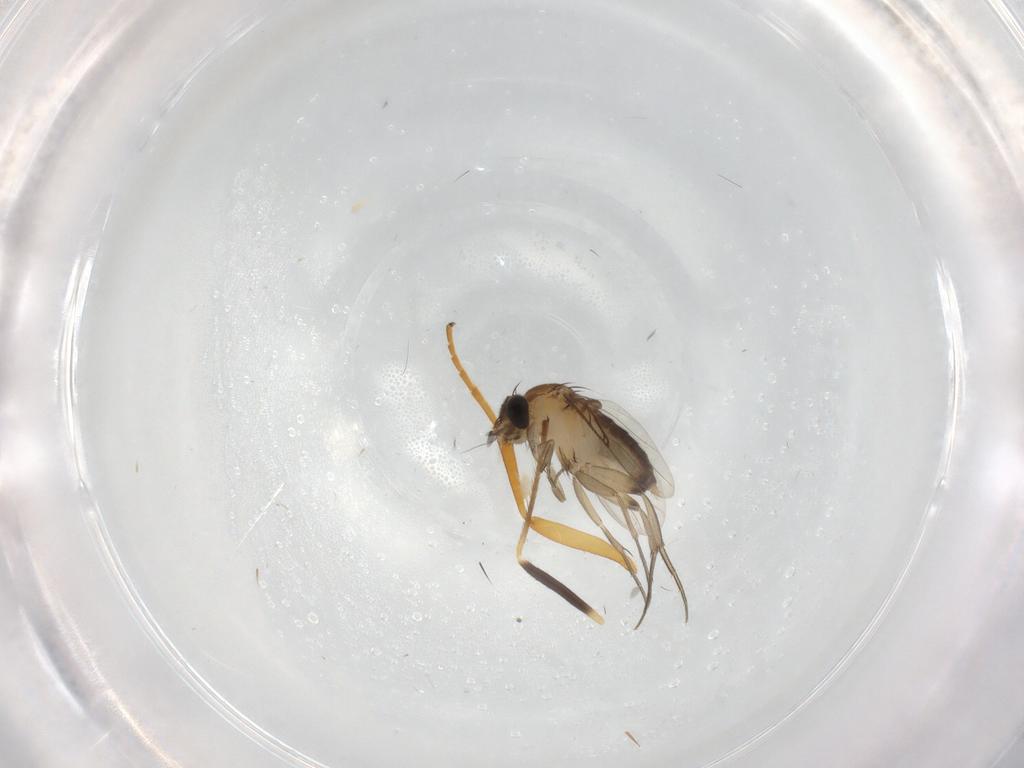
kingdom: Animalia
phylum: Arthropoda
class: Insecta
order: Diptera
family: Phoridae
